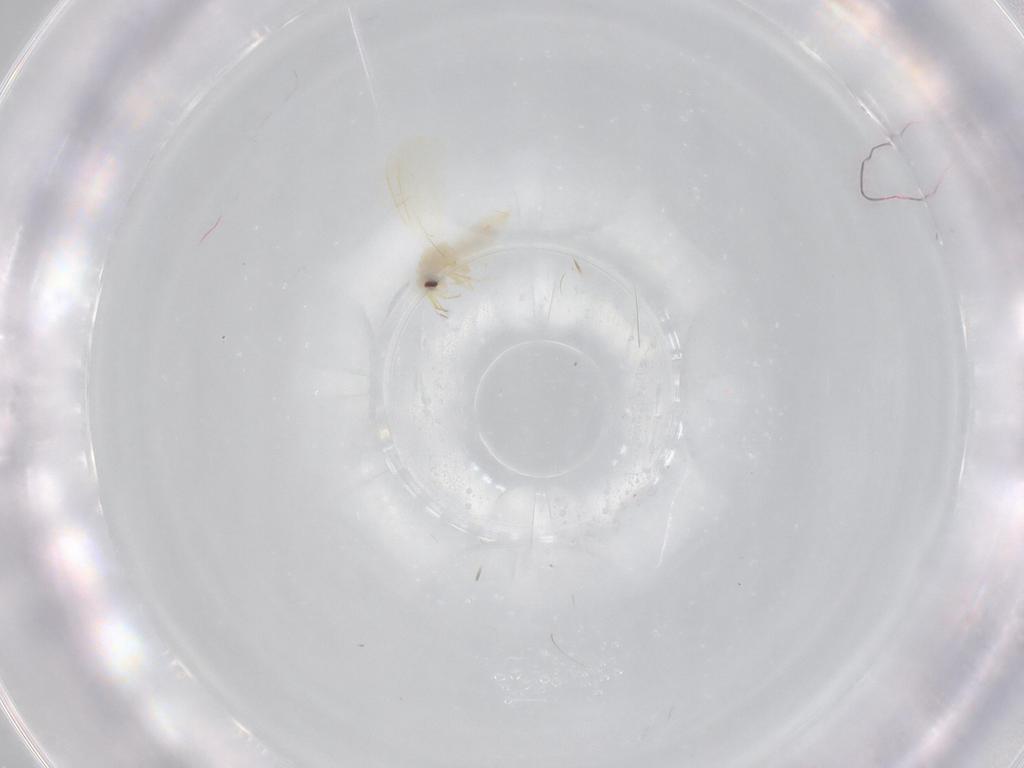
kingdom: Animalia
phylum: Arthropoda
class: Insecta
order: Hemiptera
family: Aleyrodidae
